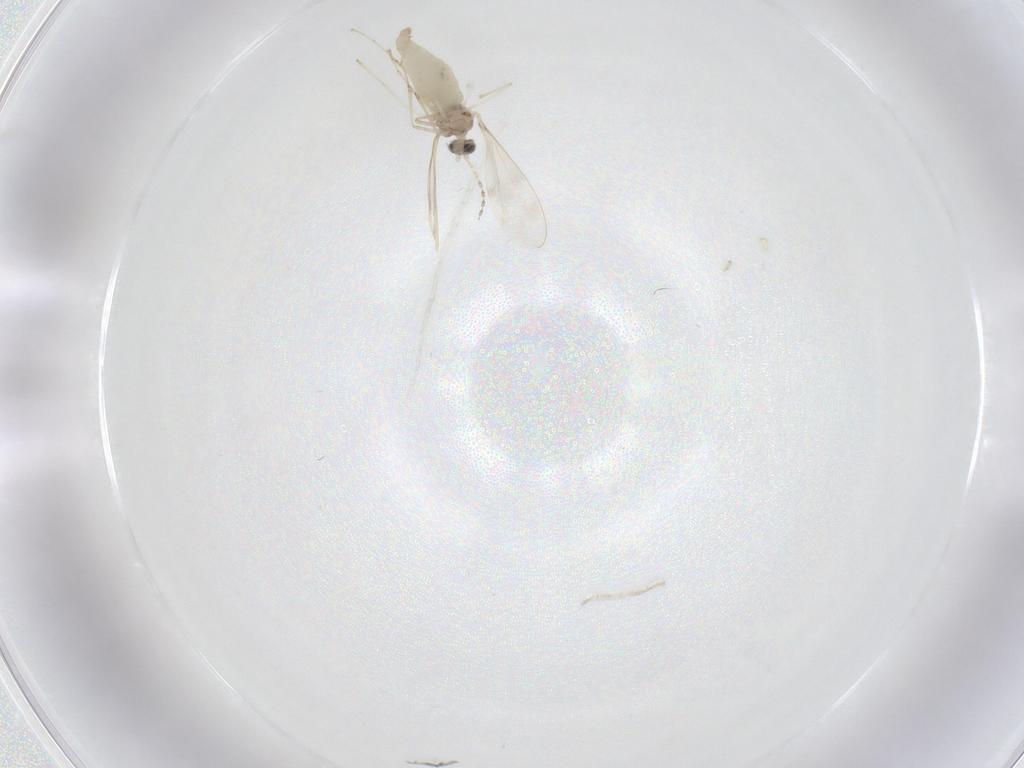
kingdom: Animalia
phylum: Arthropoda
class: Insecta
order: Diptera
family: Cecidomyiidae
